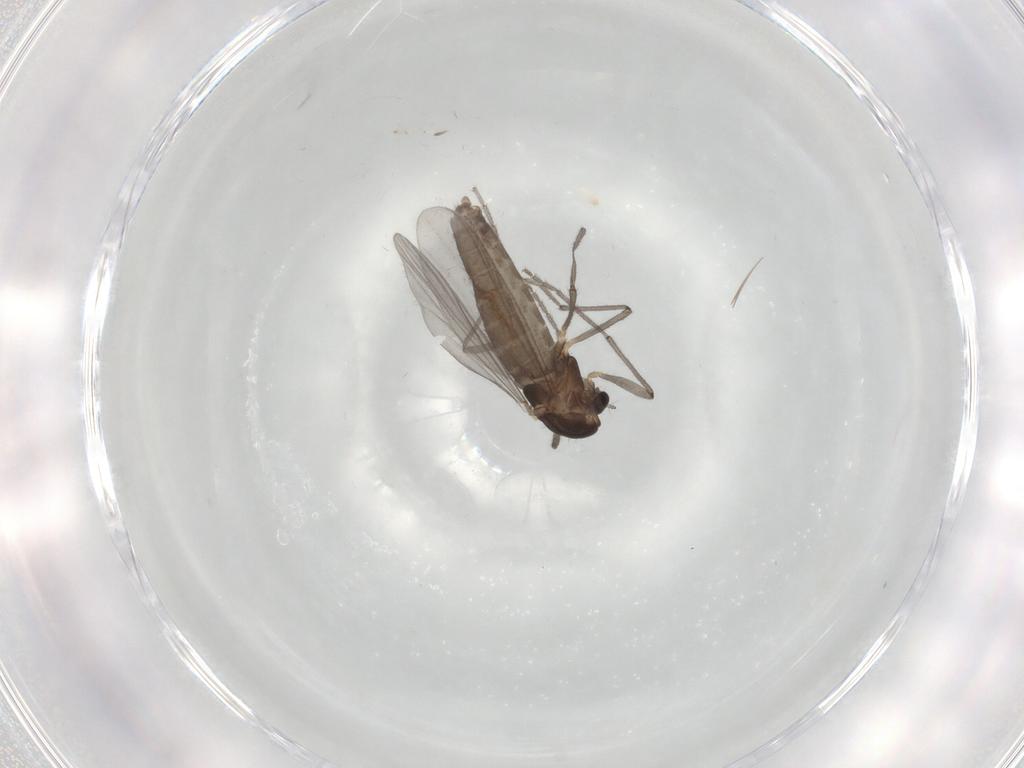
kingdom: Animalia
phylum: Arthropoda
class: Insecta
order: Diptera
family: Chironomidae
